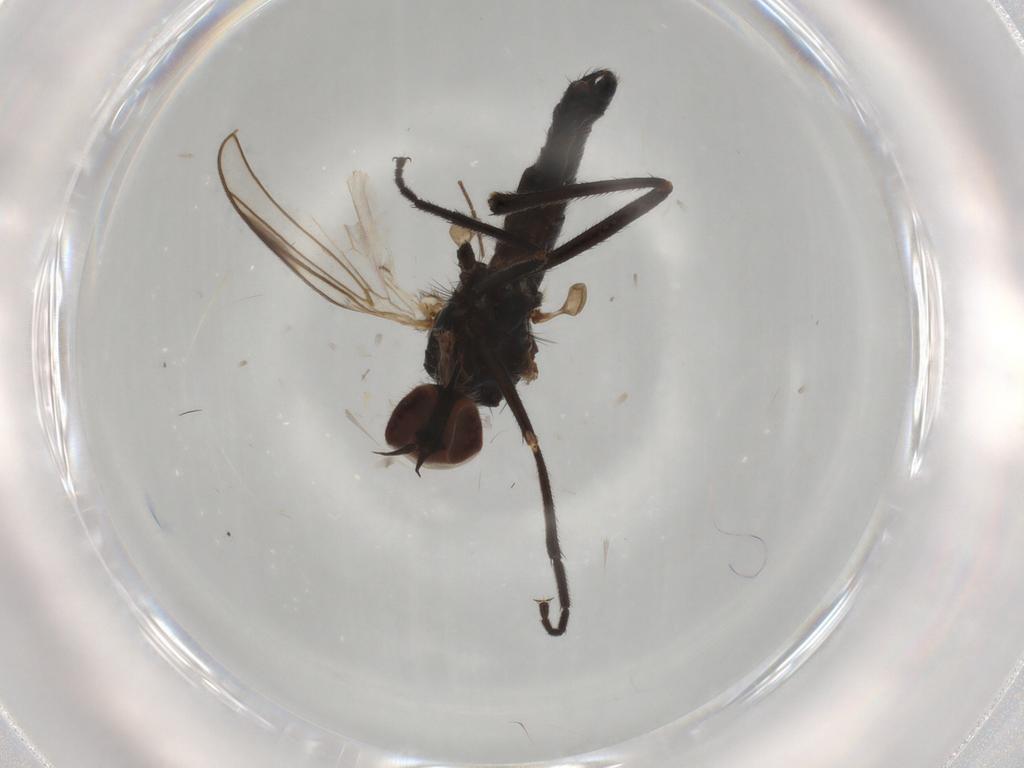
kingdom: Animalia
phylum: Arthropoda
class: Insecta
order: Diptera
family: Empididae
